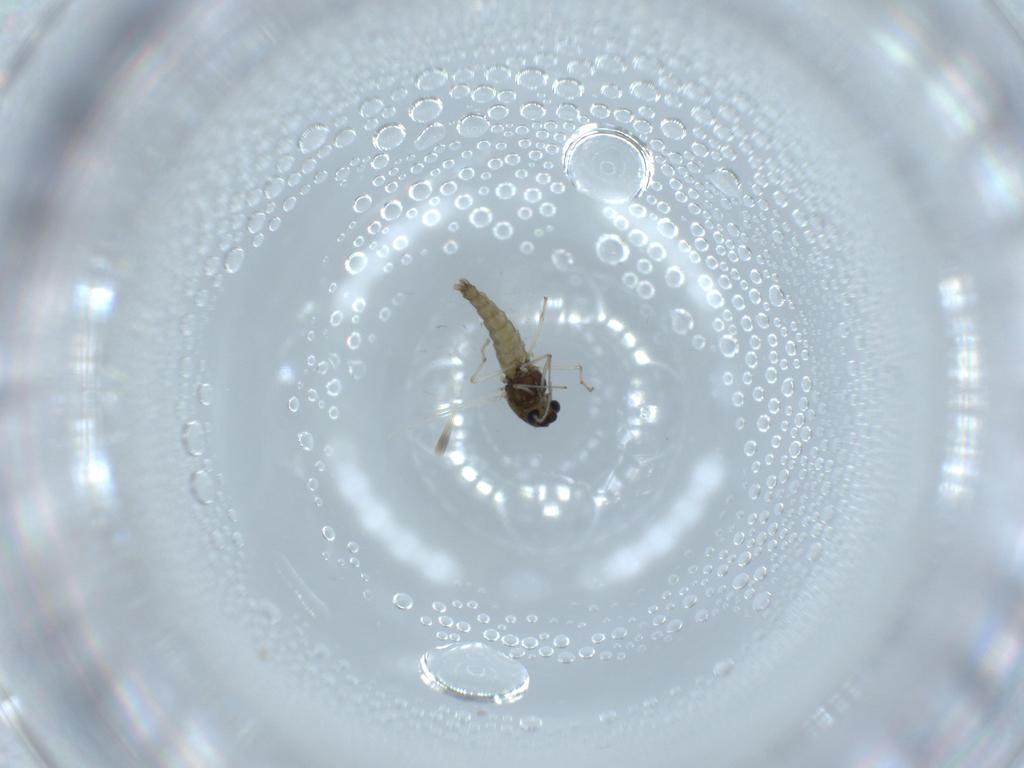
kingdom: Animalia
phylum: Arthropoda
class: Insecta
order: Diptera
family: Chironomidae
